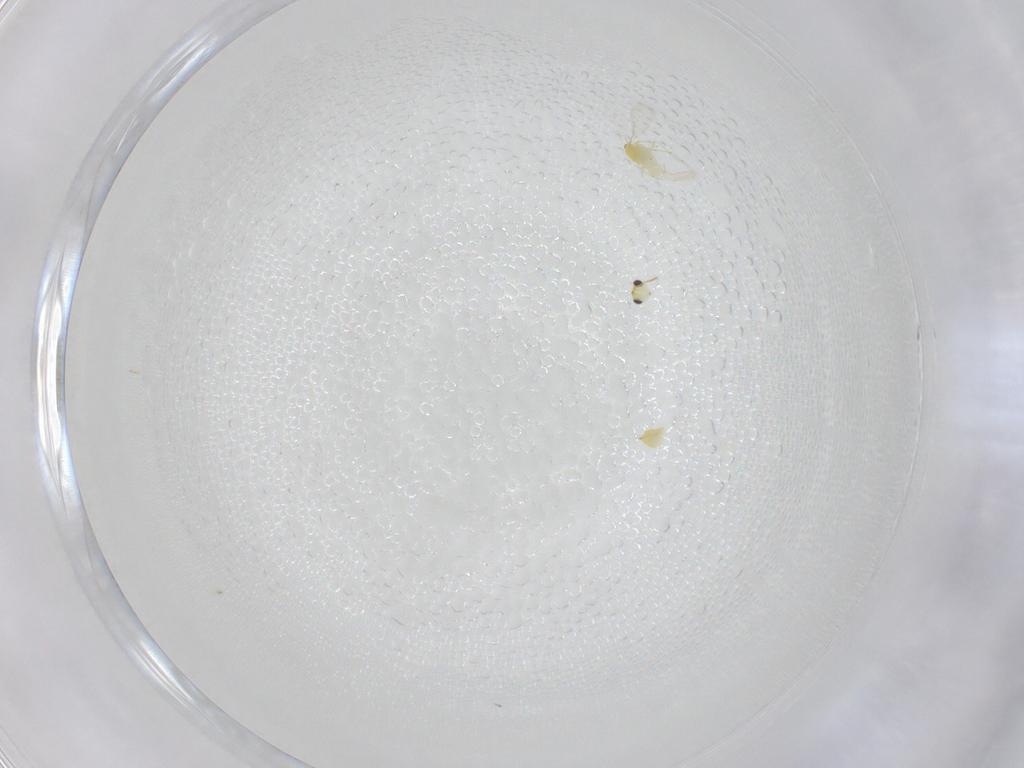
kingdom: Animalia
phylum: Arthropoda
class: Insecta
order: Hymenoptera
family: Aphelinidae
